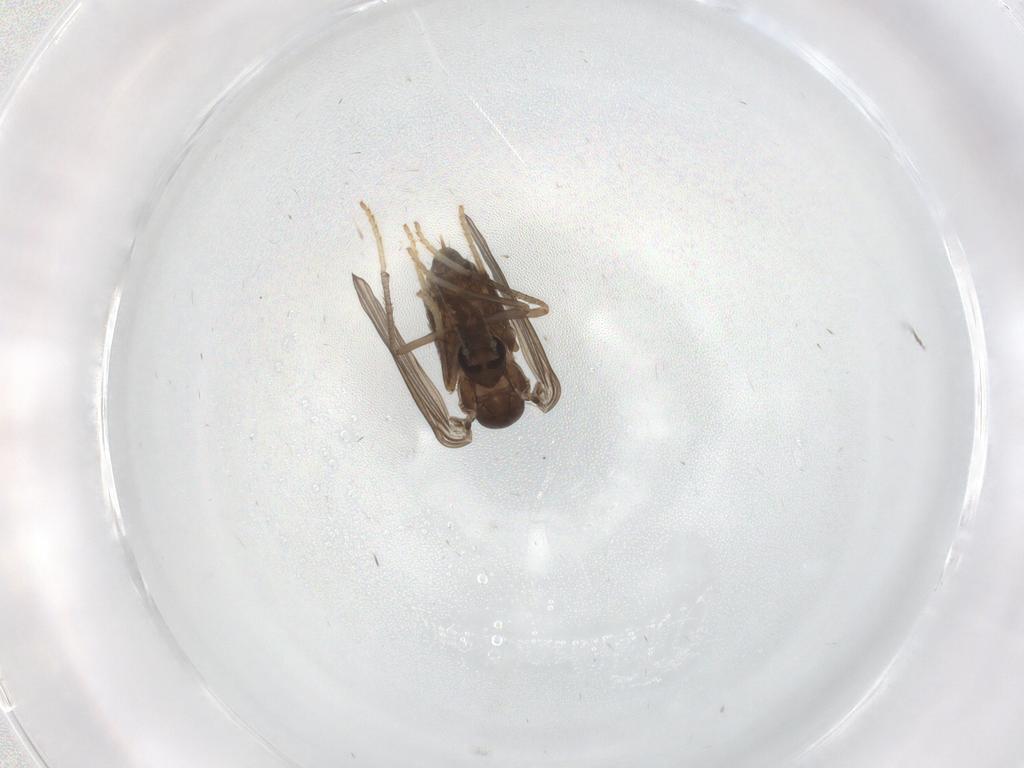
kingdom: Animalia
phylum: Arthropoda
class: Insecta
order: Diptera
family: Psychodidae
